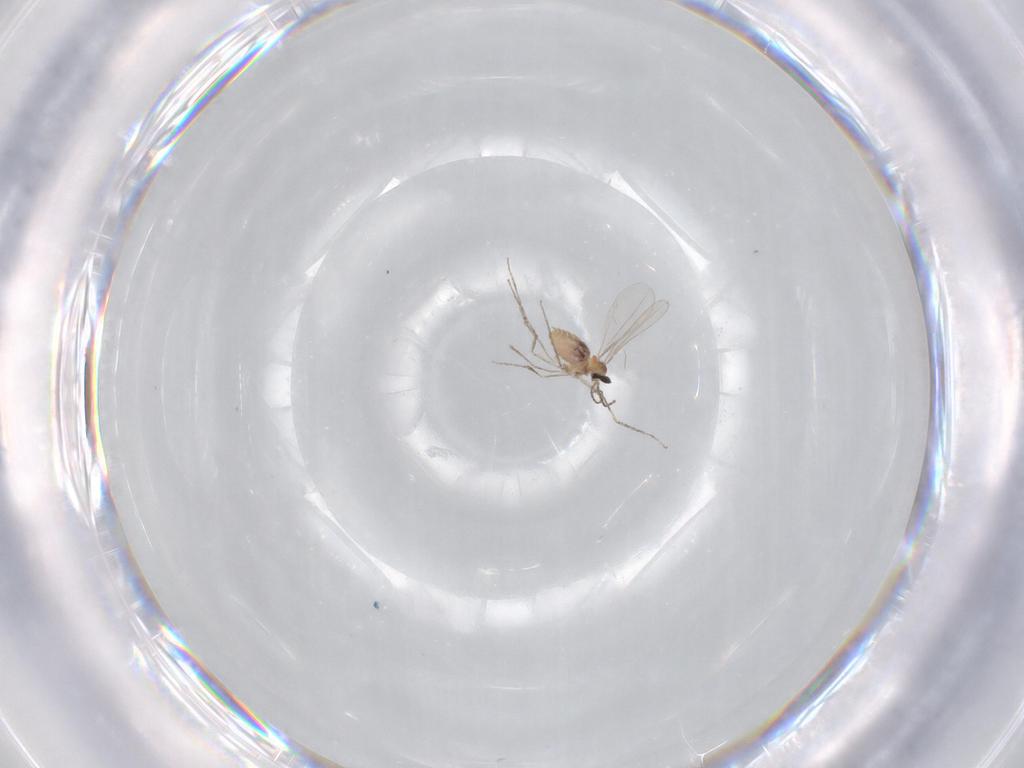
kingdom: Animalia
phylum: Arthropoda
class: Insecta
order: Diptera
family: Cecidomyiidae
